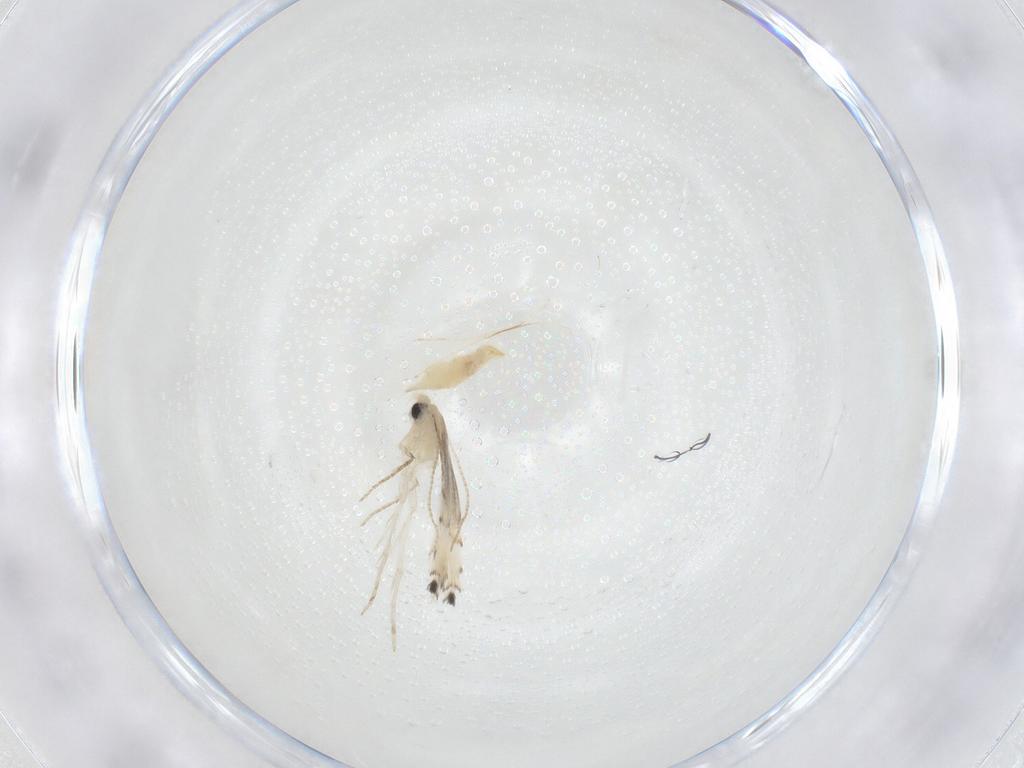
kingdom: Animalia
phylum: Arthropoda
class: Insecta
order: Lepidoptera
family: Gracillariidae
